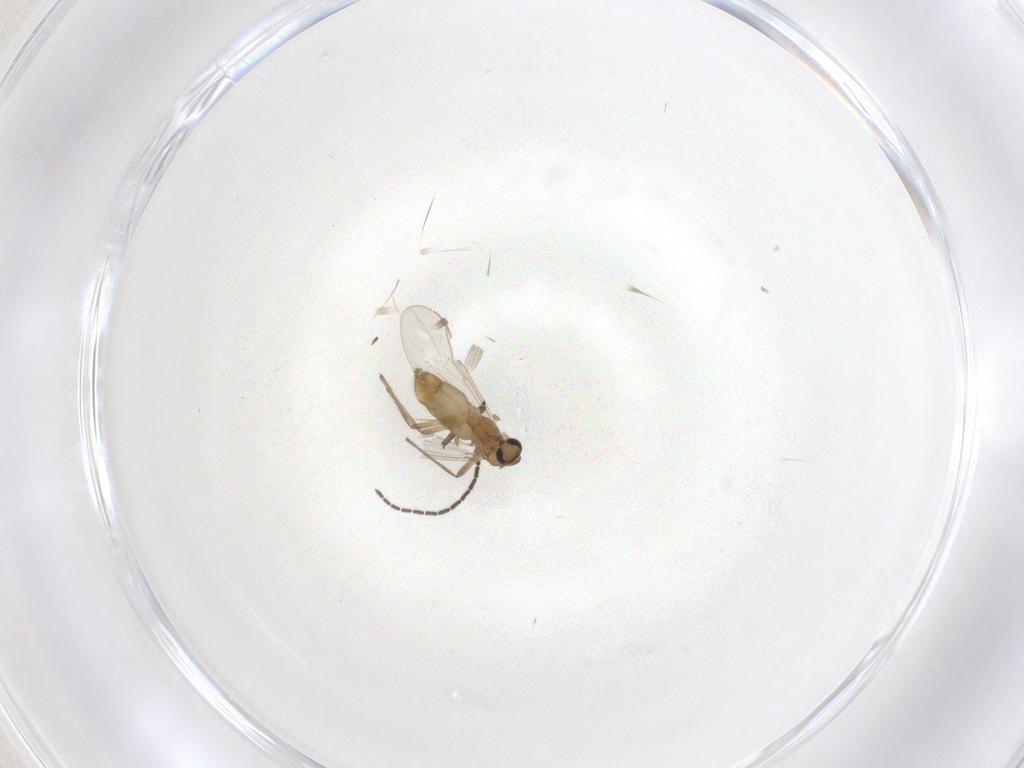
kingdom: Animalia
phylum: Arthropoda
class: Insecta
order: Diptera
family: Chironomidae
